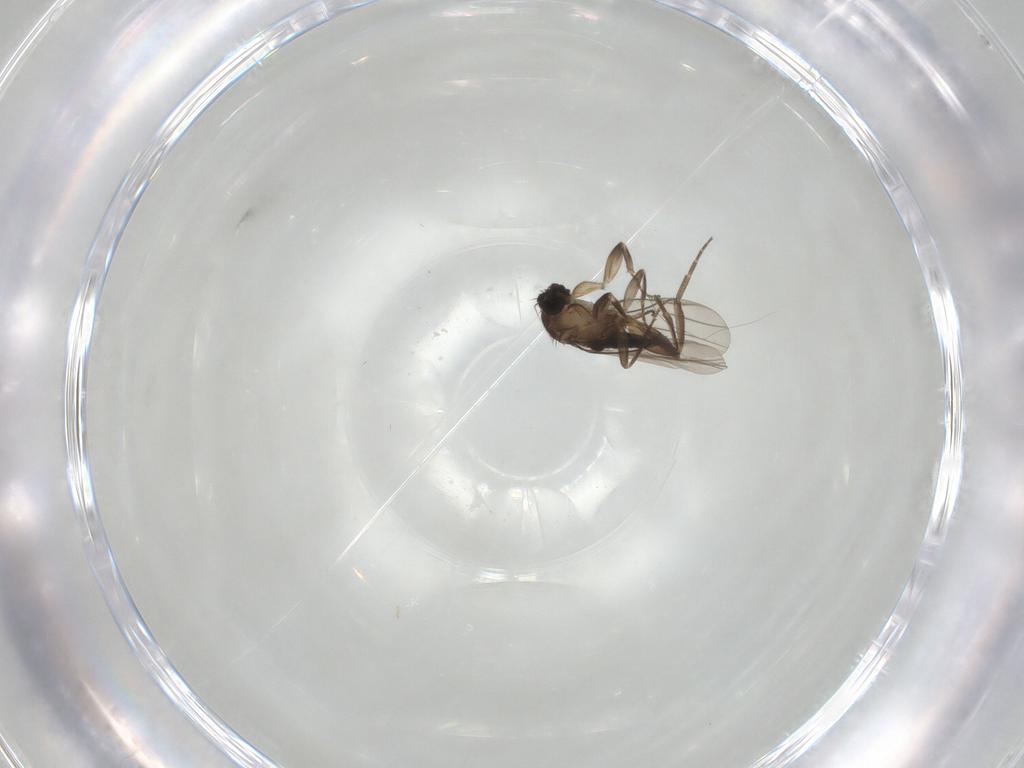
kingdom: Animalia
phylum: Arthropoda
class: Insecta
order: Diptera
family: Phoridae
